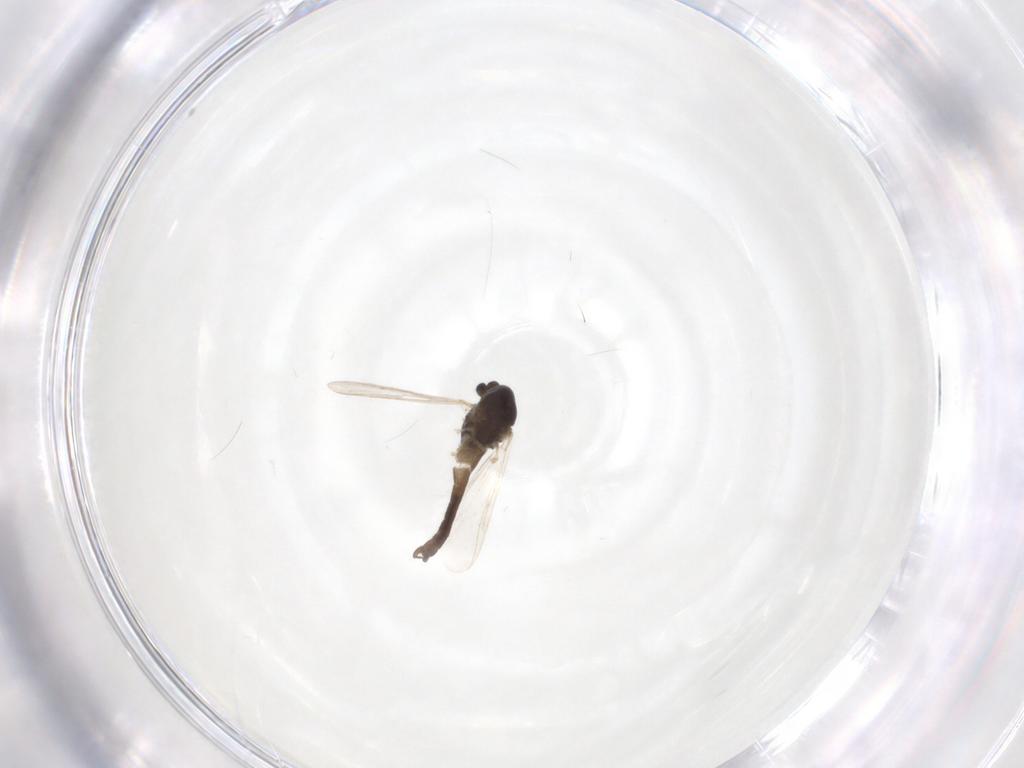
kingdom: Animalia
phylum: Arthropoda
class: Insecta
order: Diptera
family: Chironomidae
